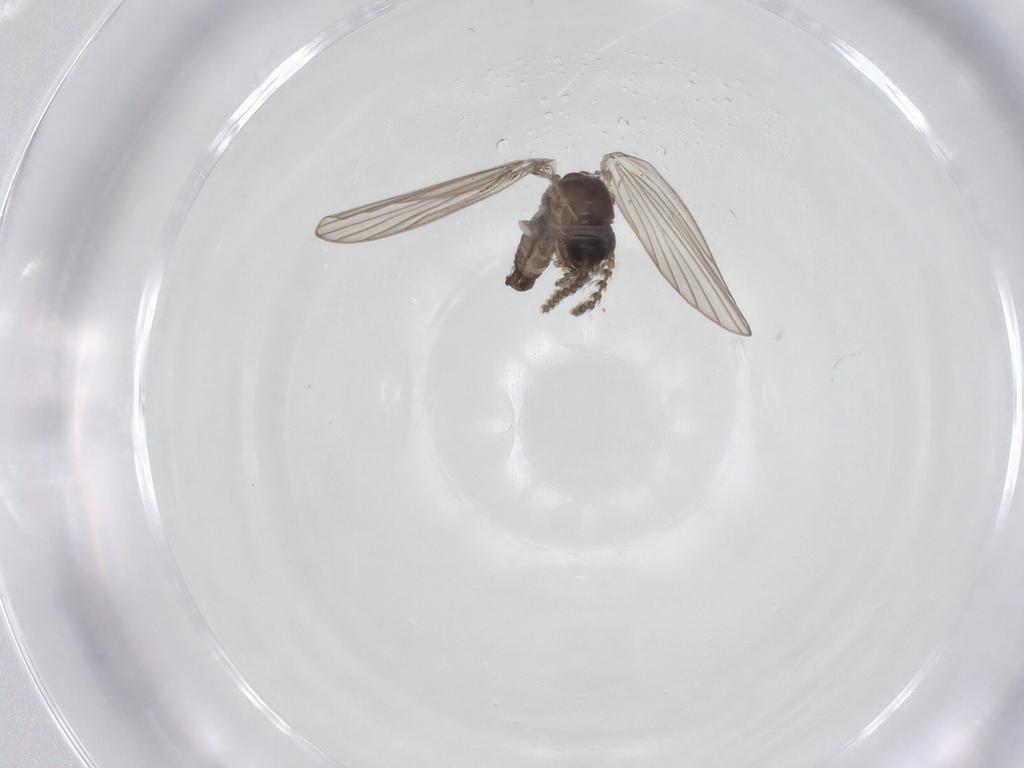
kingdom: Animalia
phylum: Arthropoda
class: Insecta
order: Diptera
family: Psychodidae
